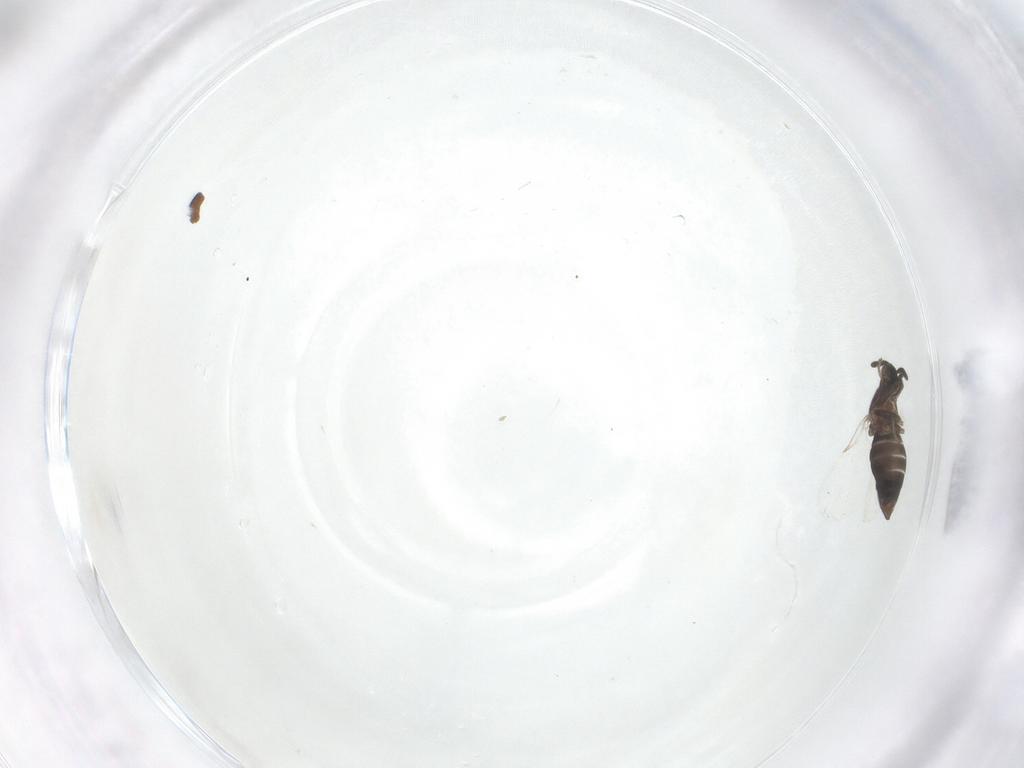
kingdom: Animalia
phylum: Arthropoda
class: Insecta
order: Diptera
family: Scatopsidae
